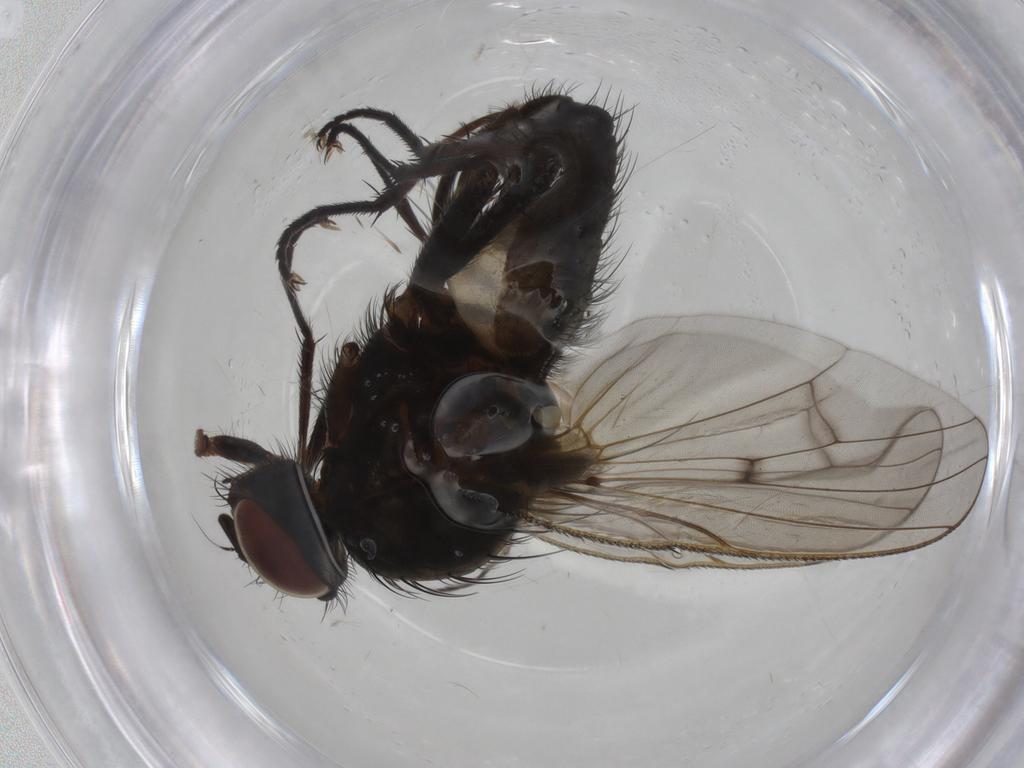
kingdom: Animalia
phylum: Arthropoda
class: Insecta
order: Diptera
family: Anthomyiidae
